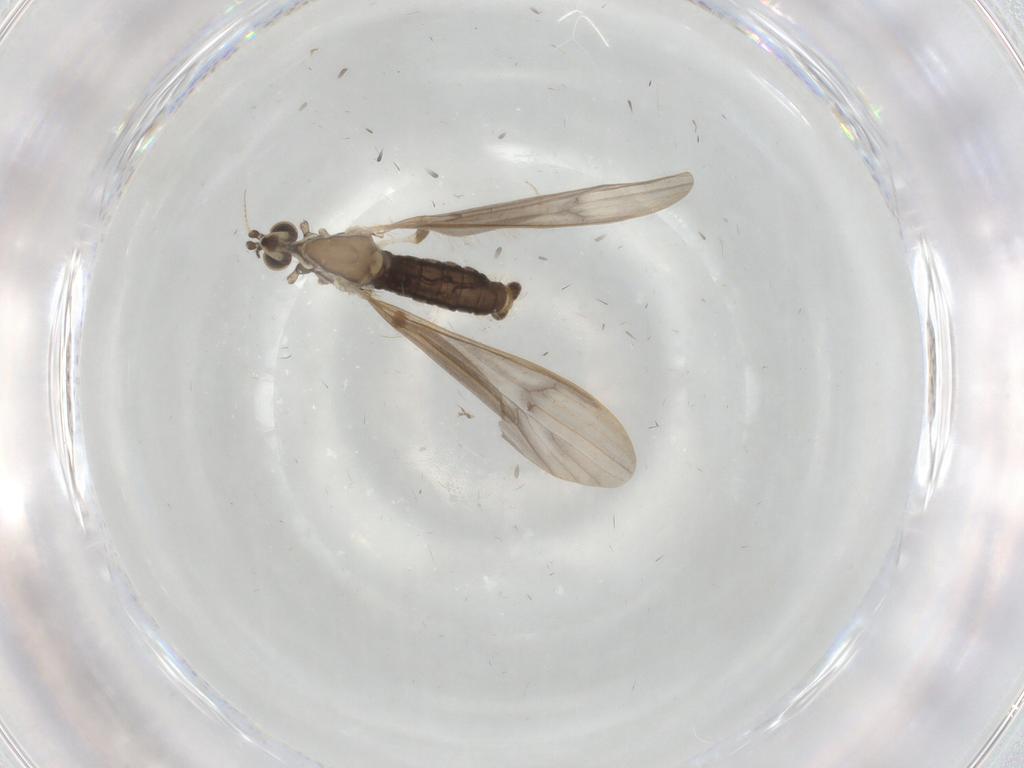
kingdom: Animalia
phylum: Arthropoda
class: Insecta
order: Diptera
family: Limoniidae
